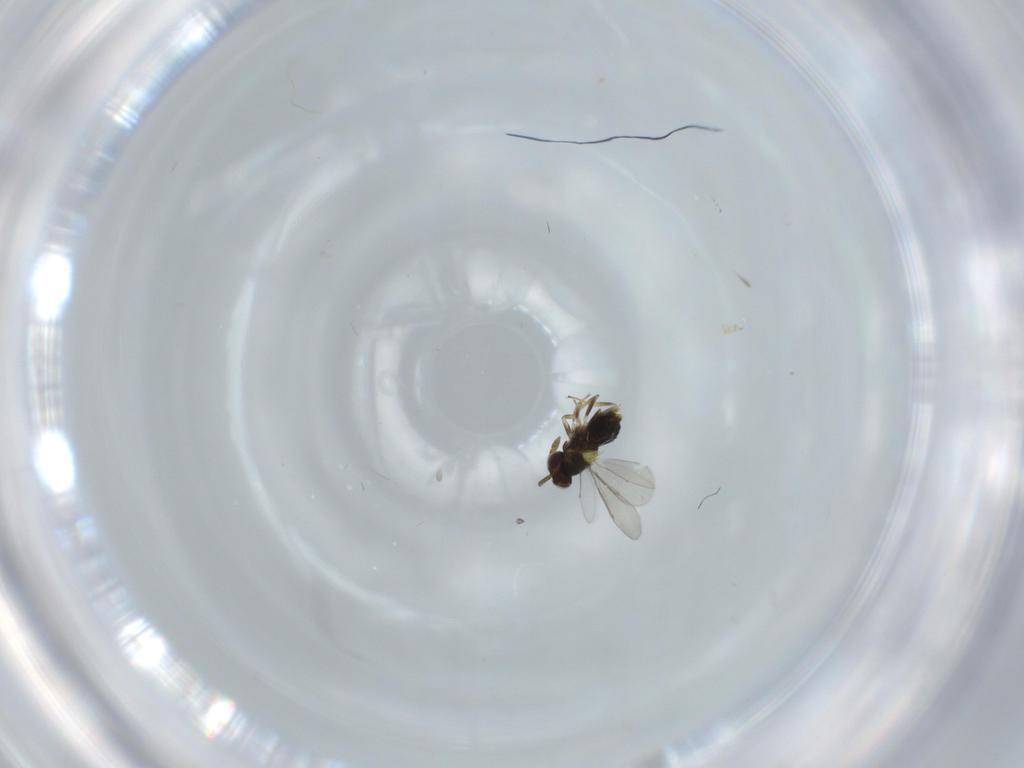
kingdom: Animalia
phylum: Arthropoda
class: Insecta
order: Hymenoptera
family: Aphelinidae
